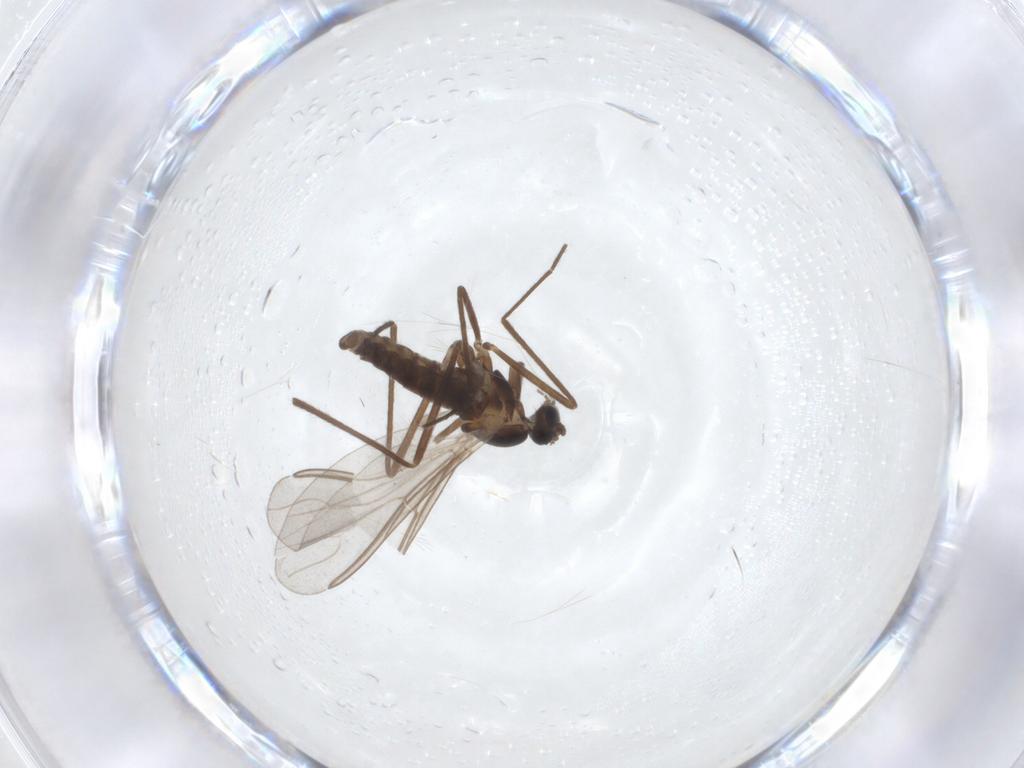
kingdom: Animalia
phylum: Arthropoda
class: Insecta
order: Diptera
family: Cecidomyiidae
